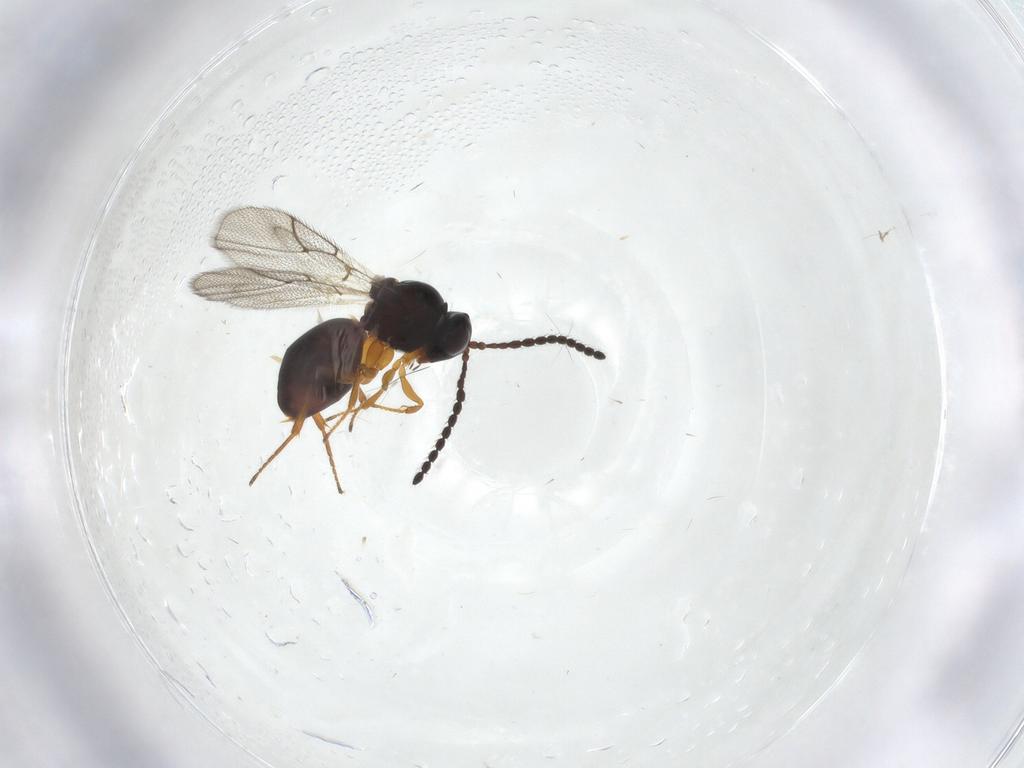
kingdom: Animalia
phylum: Arthropoda
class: Insecta
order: Hymenoptera
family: Figitidae
